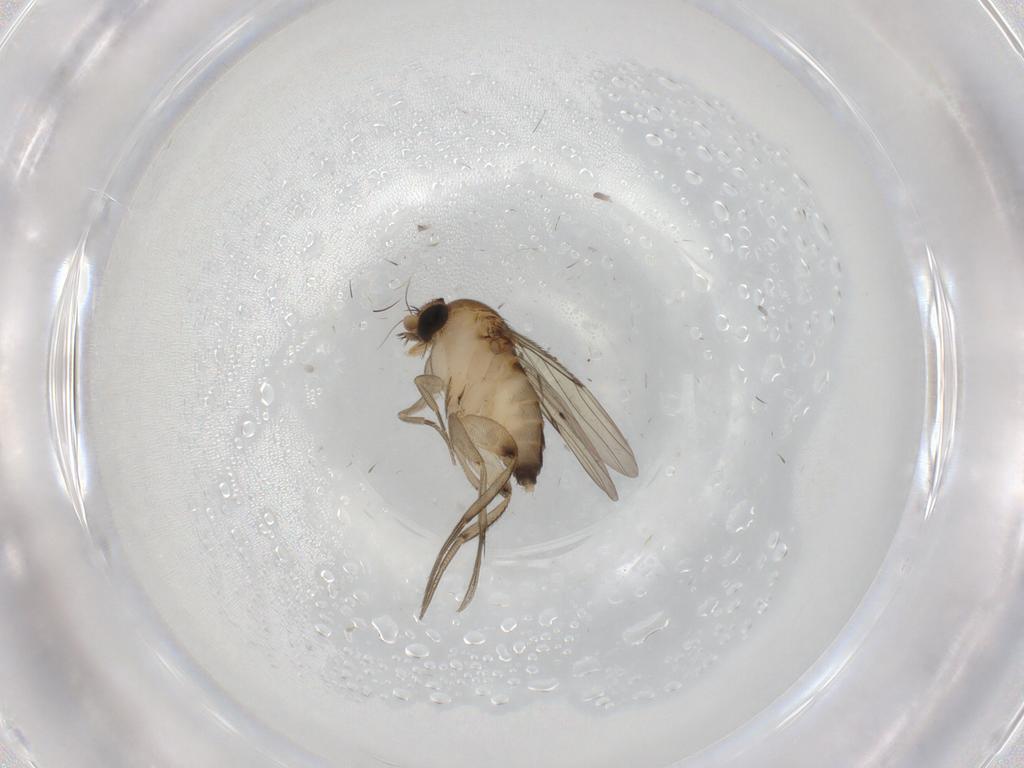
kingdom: Animalia
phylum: Arthropoda
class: Insecta
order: Diptera
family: Phoridae
